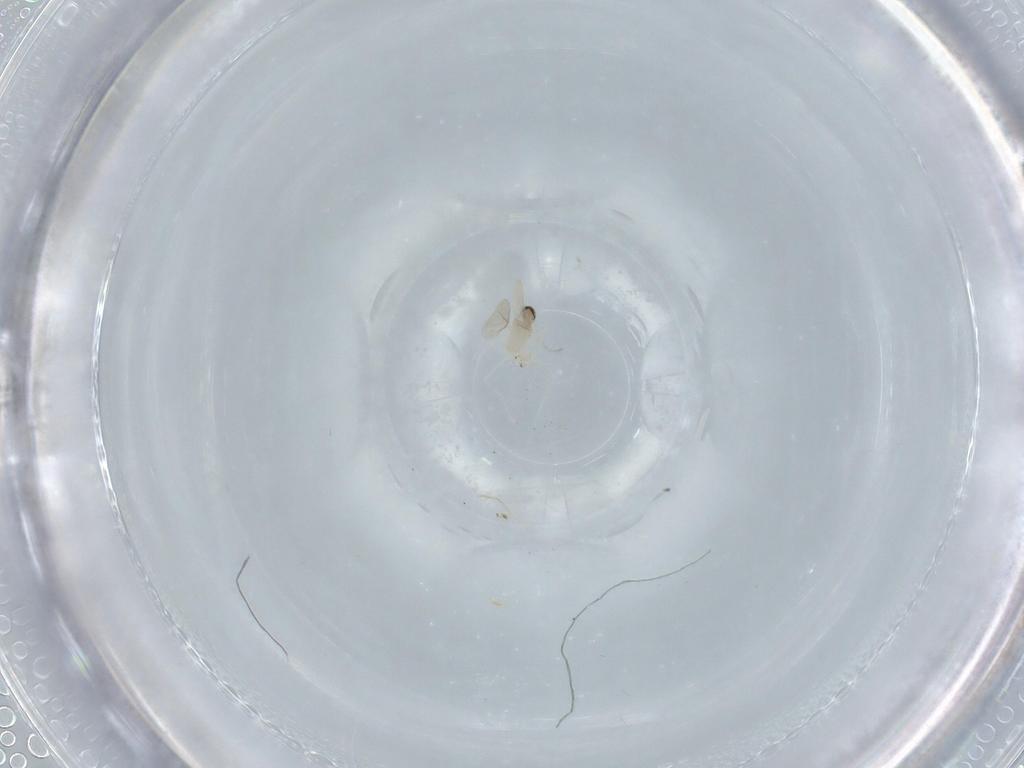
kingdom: Animalia
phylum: Arthropoda
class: Insecta
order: Diptera
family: Cecidomyiidae
